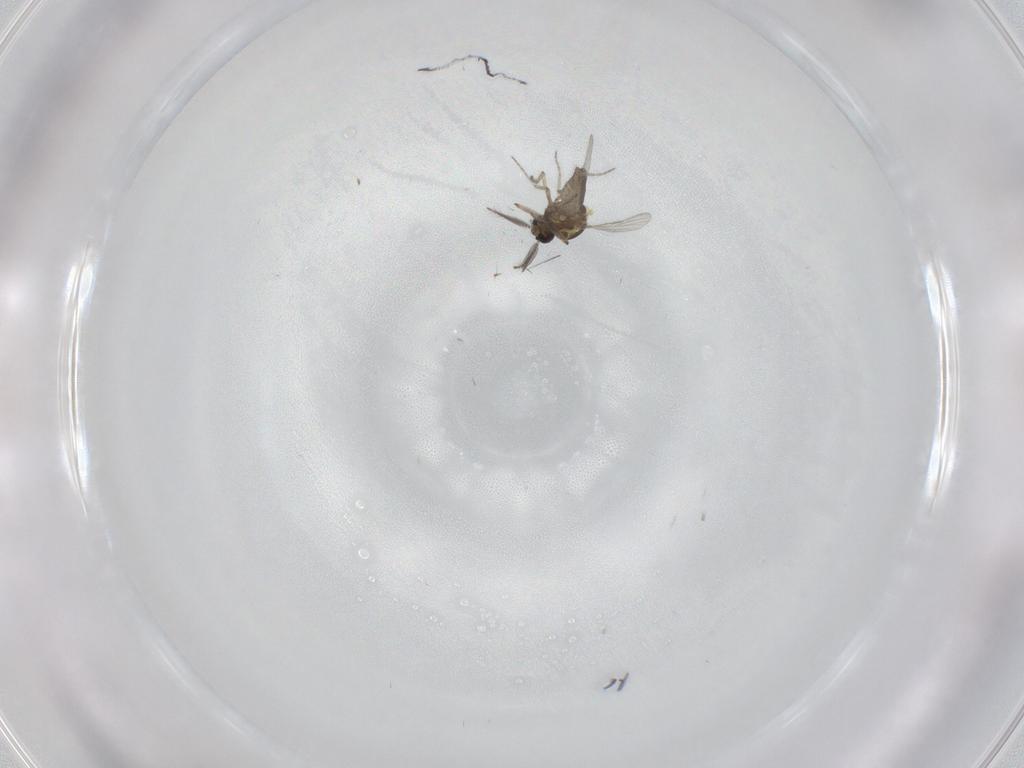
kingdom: Animalia
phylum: Arthropoda
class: Insecta
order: Diptera
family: Ceratopogonidae
